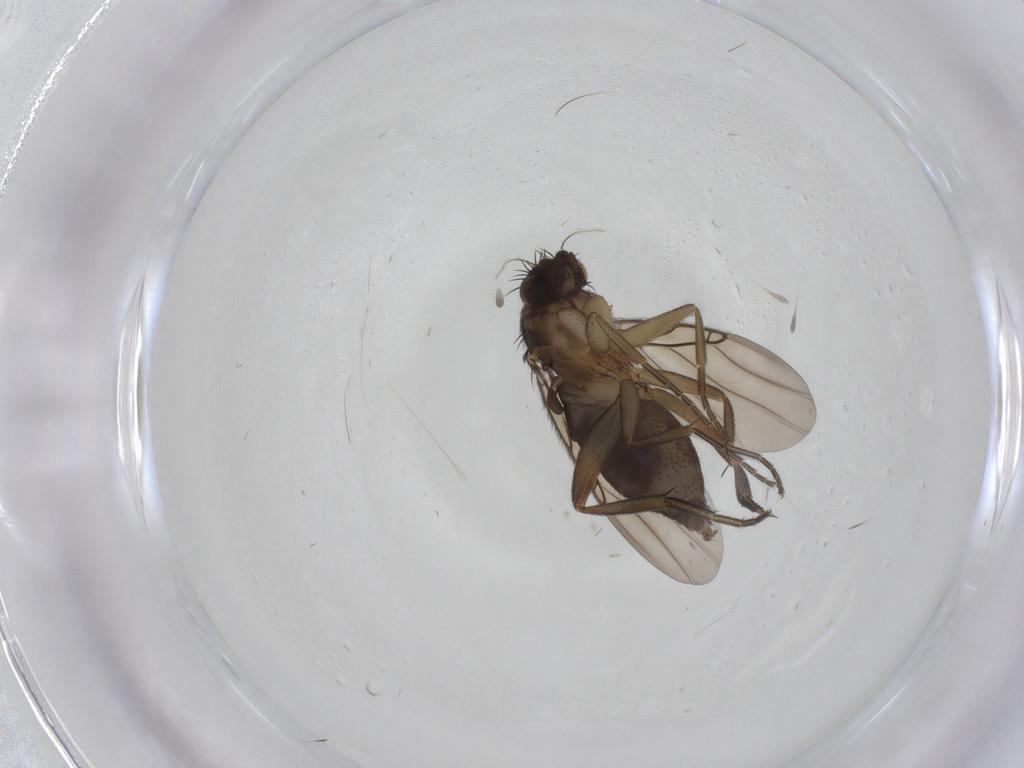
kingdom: Animalia
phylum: Arthropoda
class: Insecta
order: Diptera
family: Phoridae
